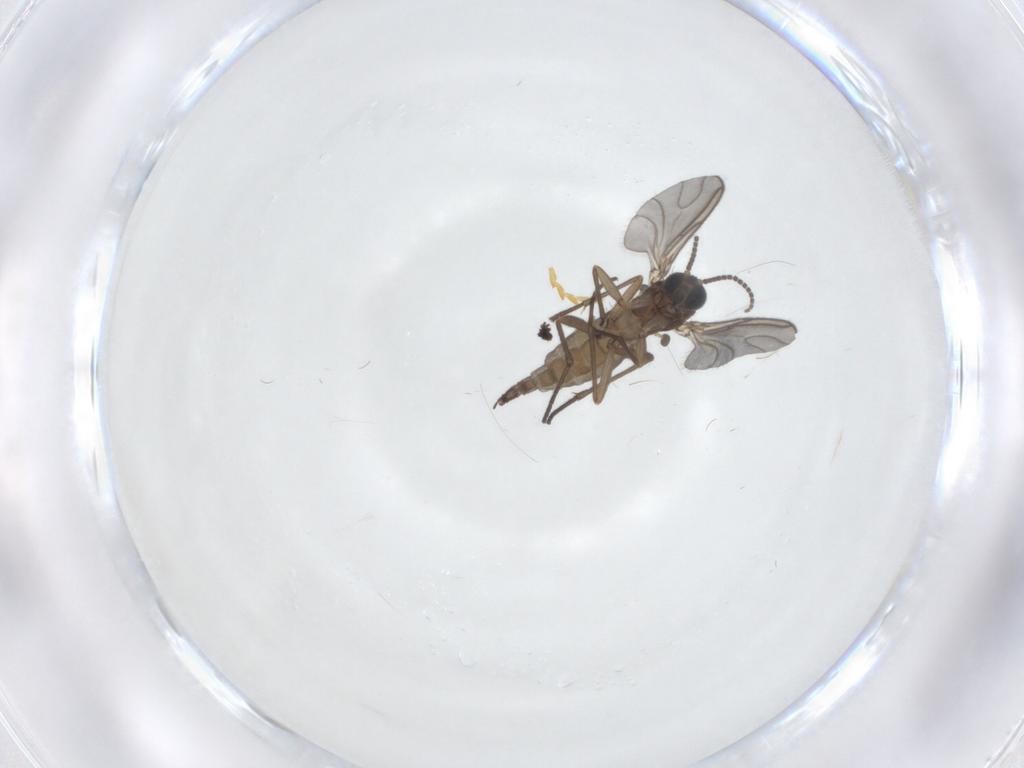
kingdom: Animalia
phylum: Arthropoda
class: Insecta
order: Diptera
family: Sciaridae
